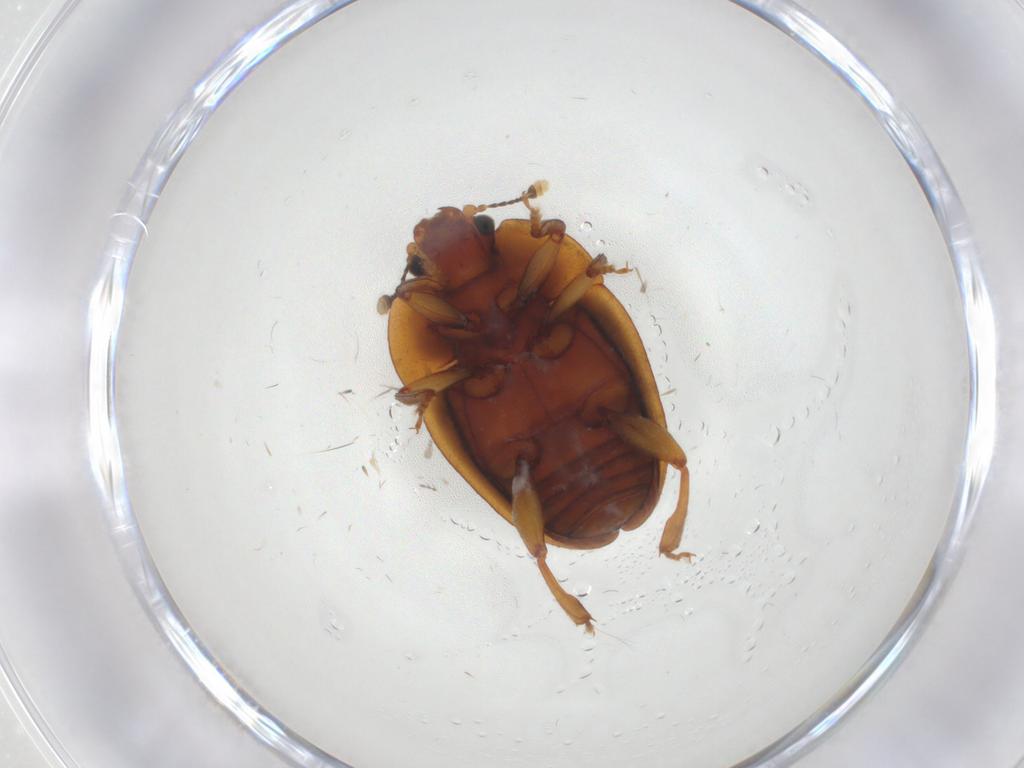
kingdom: Animalia
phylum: Arthropoda
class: Insecta
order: Coleoptera
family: Nitidulidae
